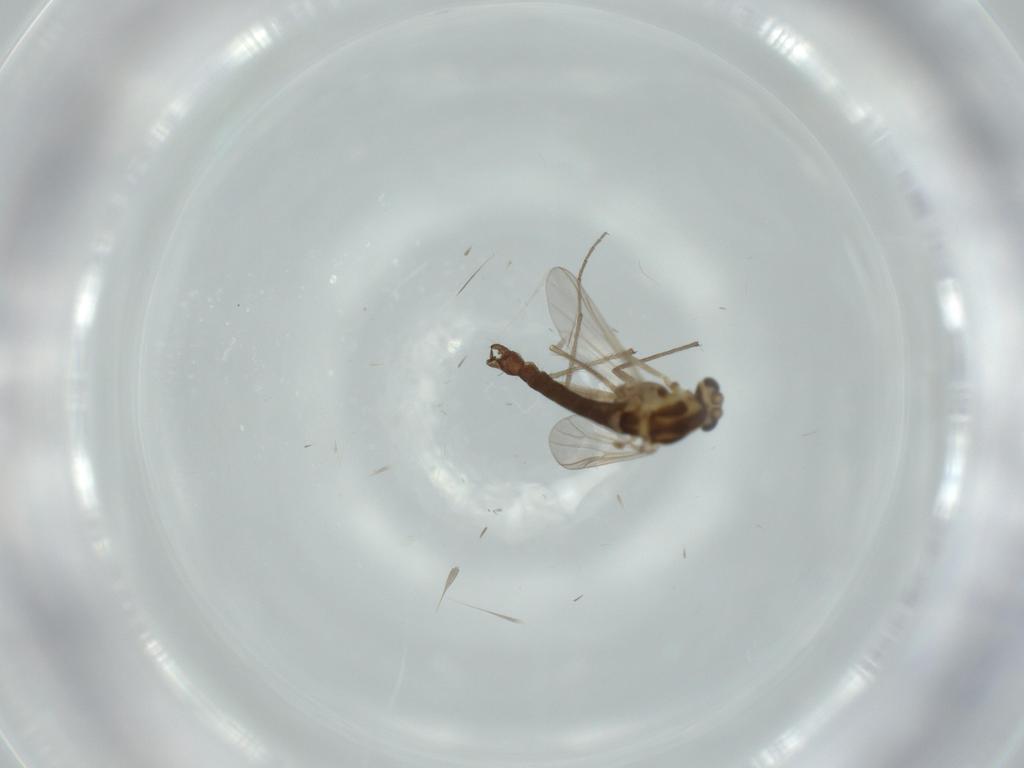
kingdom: Animalia
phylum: Arthropoda
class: Insecta
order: Diptera
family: Chironomidae
